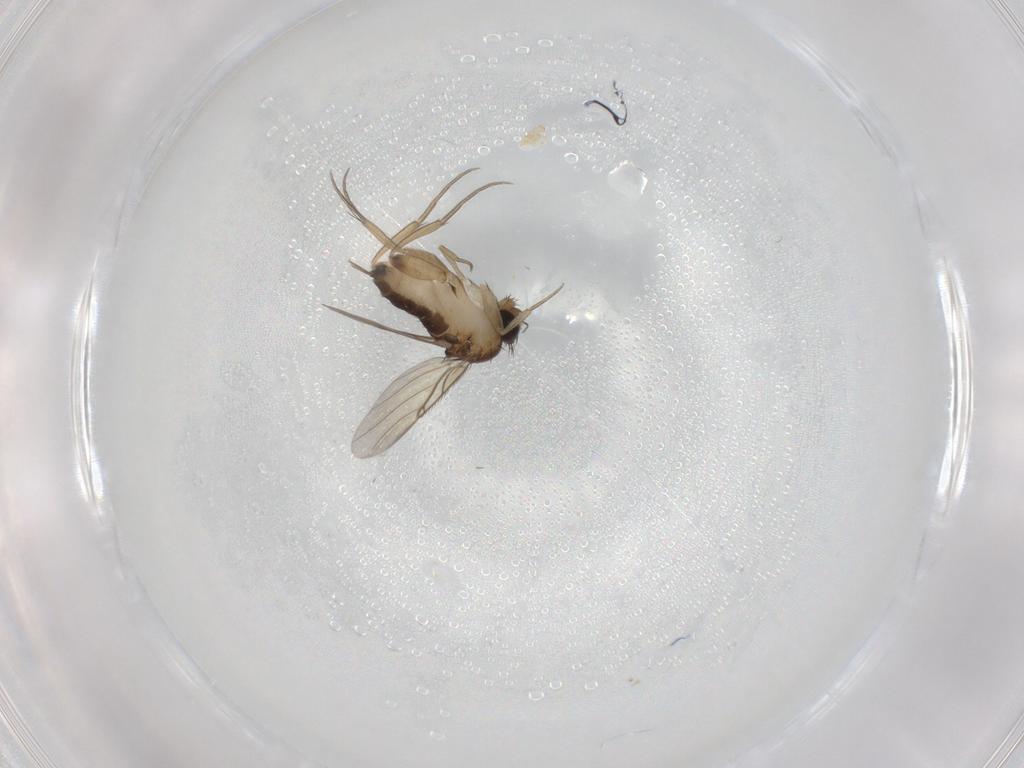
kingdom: Animalia
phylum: Arthropoda
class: Insecta
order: Diptera
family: Phoridae
